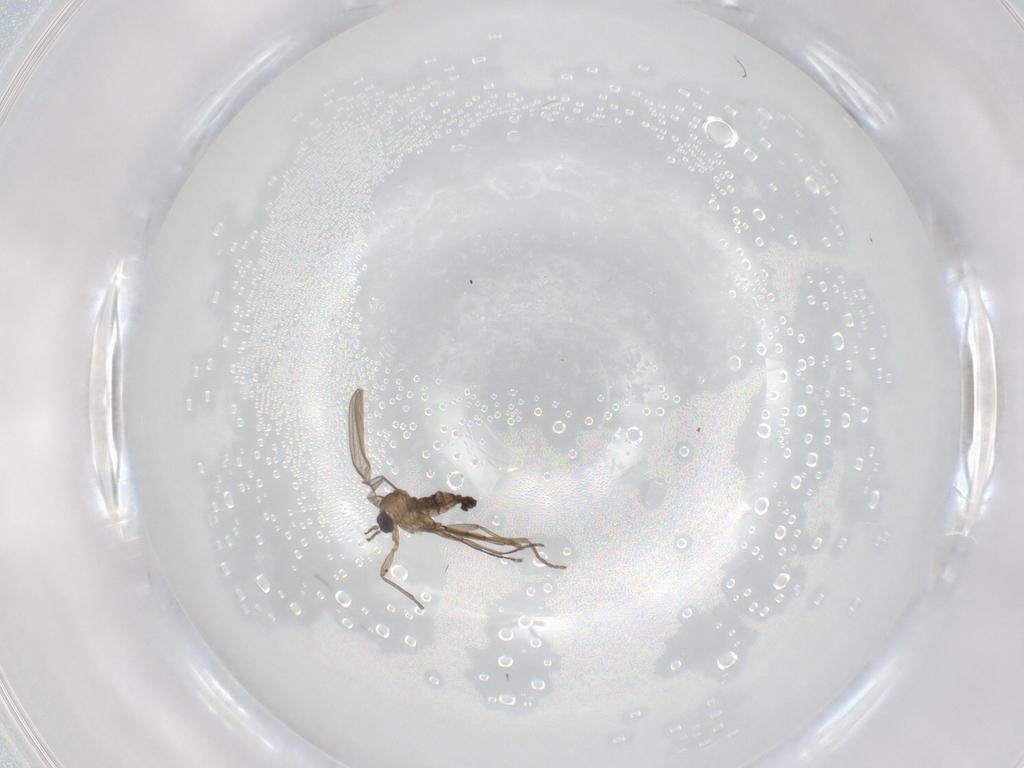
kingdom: Animalia
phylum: Arthropoda
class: Insecta
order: Diptera
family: Sciaridae
